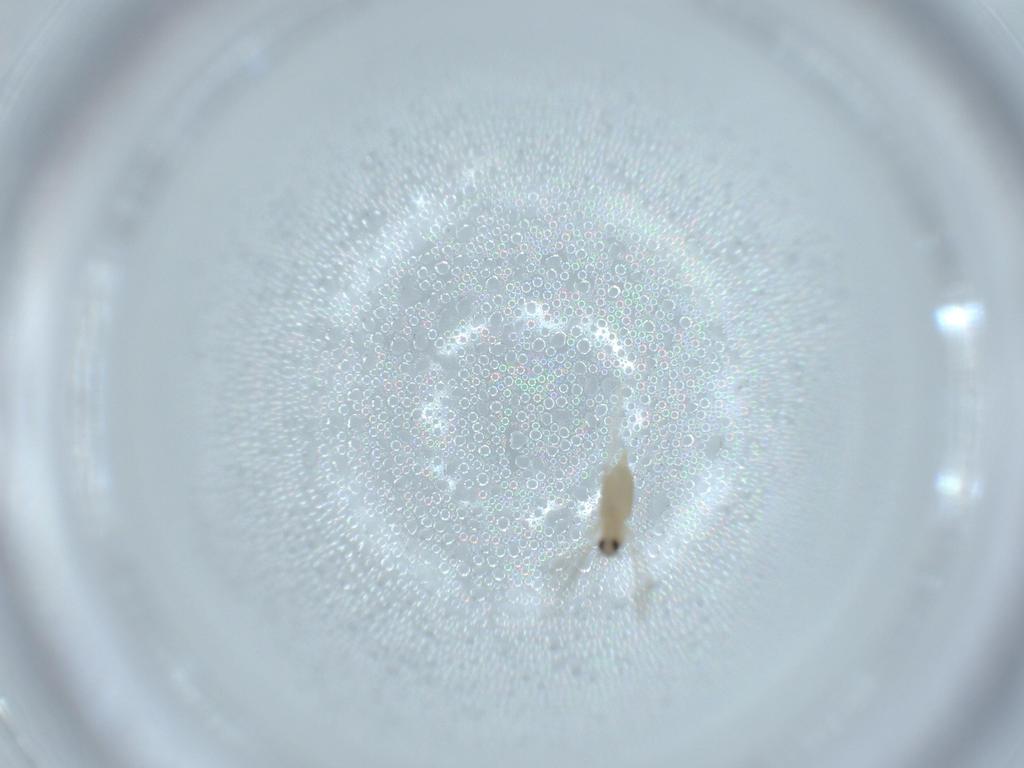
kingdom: Animalia
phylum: Arthropoda
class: Insecta
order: Diptera
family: Cecidomyiidae
